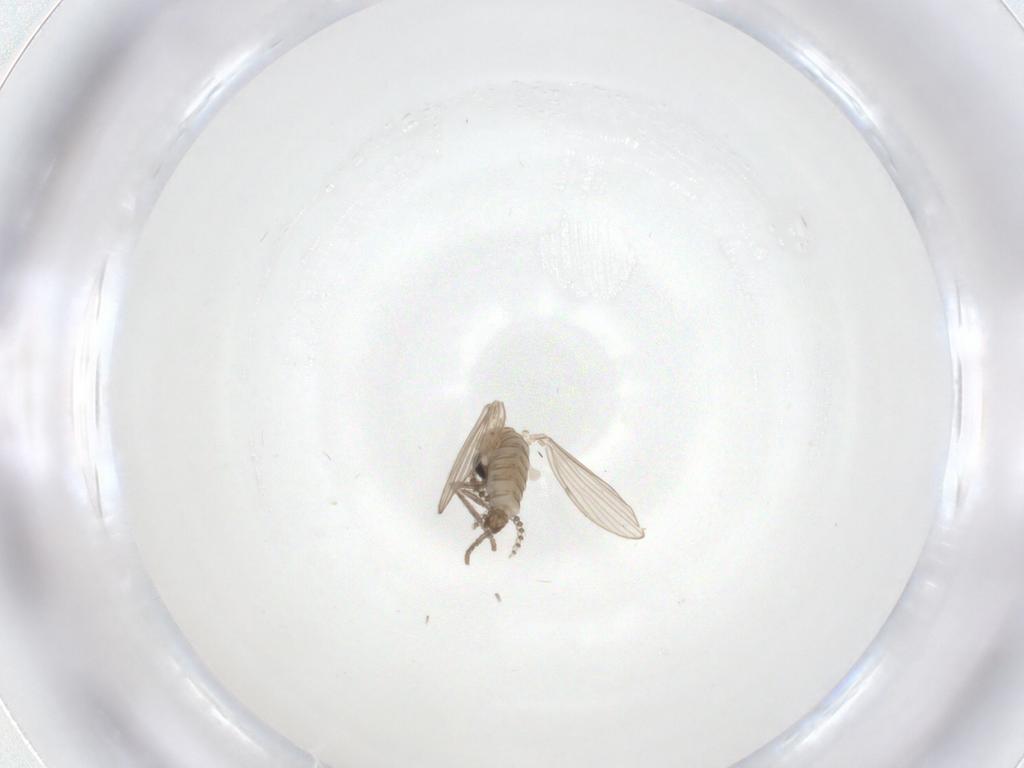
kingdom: Animalia
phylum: Arthropoda
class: Insecta
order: Diptera
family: Psychodidae
